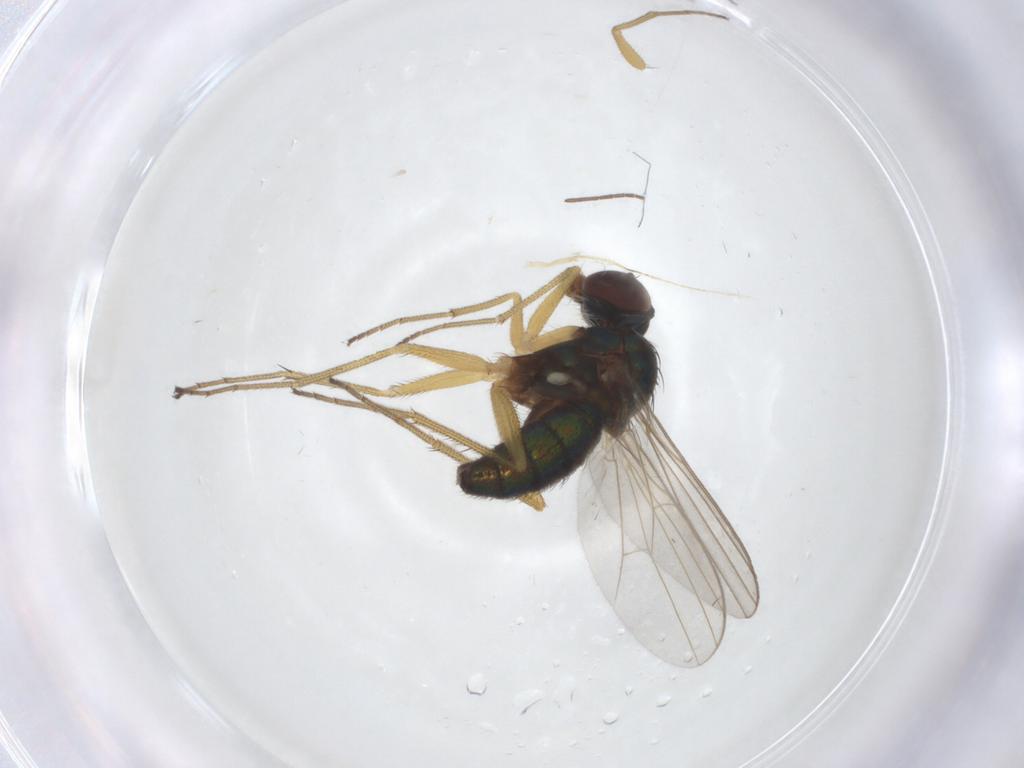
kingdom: Animalia
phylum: Arthropoda
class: Insecta
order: Diptera
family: Dolichopodidae
